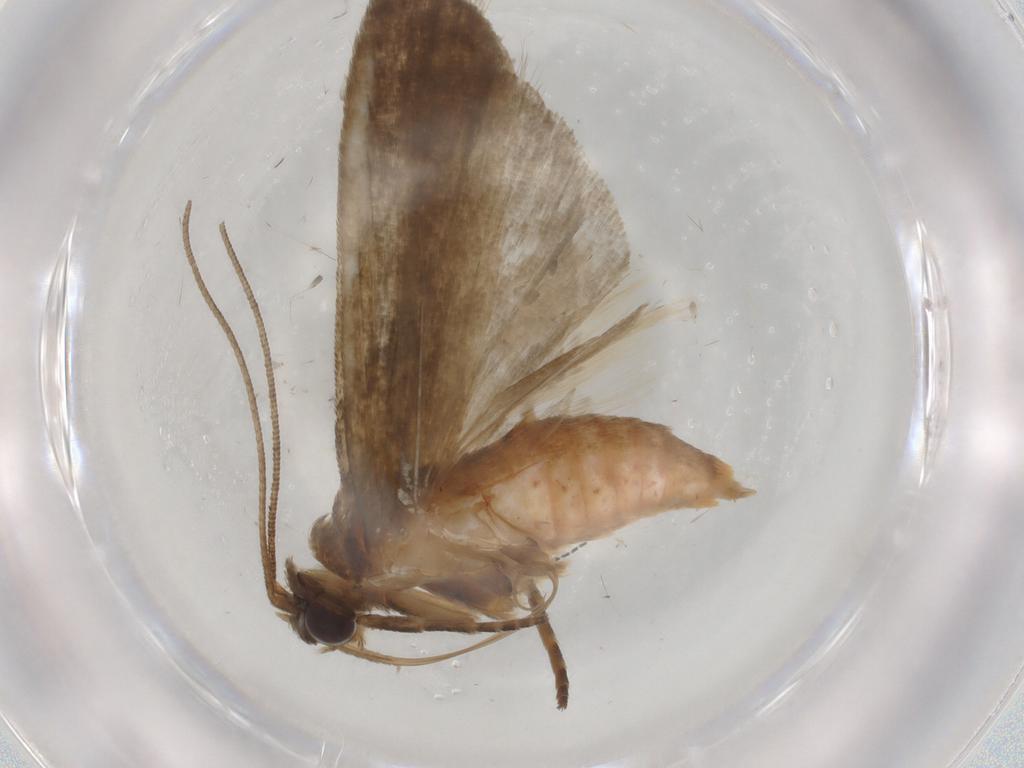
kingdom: Animalia
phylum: Arthropoda
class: Insecta
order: Lepidoptera
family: Noctuidae
